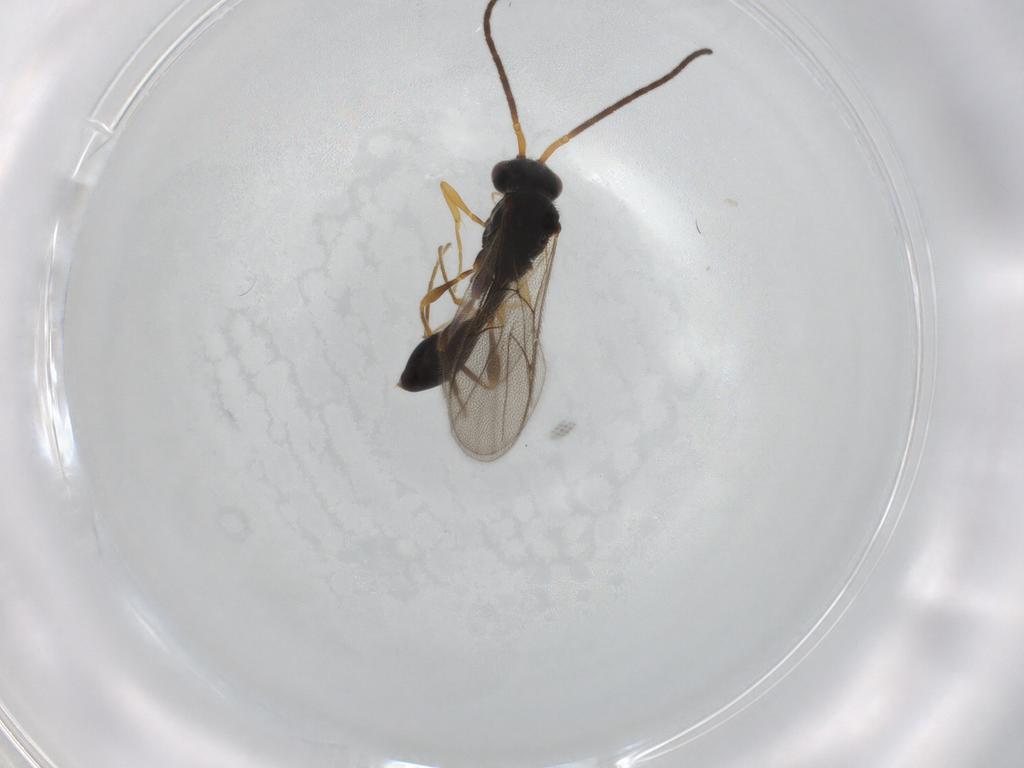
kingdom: Animalia
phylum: Arthropoda
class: Insecta
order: Hymenoptera
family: Diapriidae
